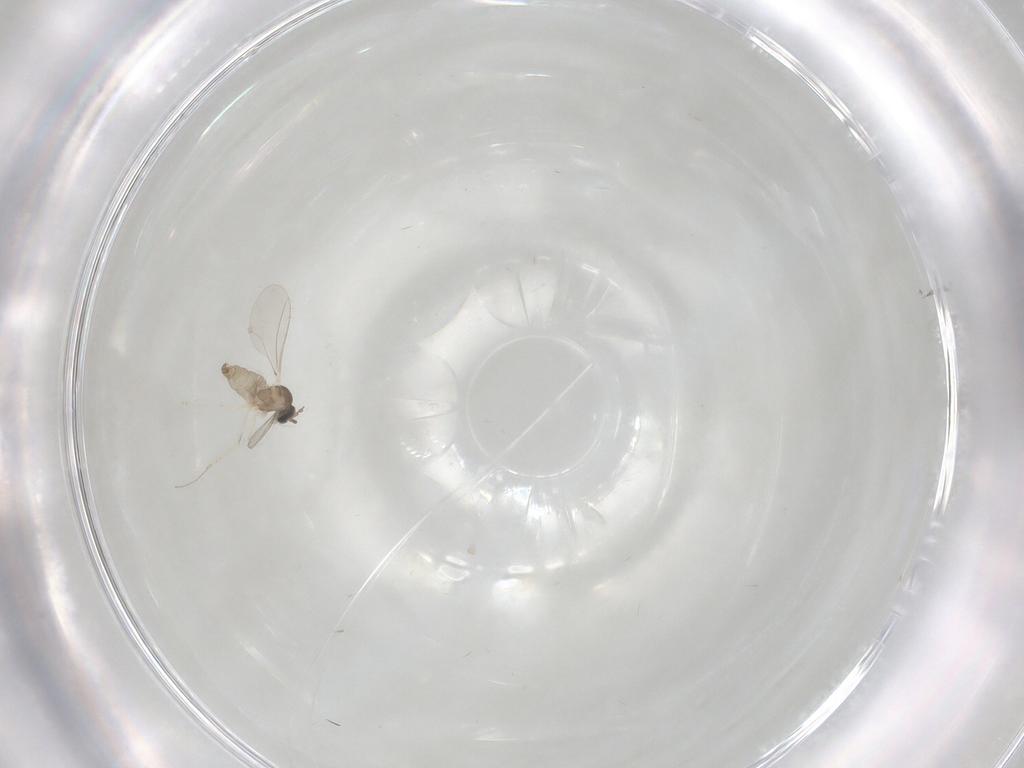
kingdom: Animalia
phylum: Arthropoda
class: Insecta
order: Diptera
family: Cecidomyiidae
